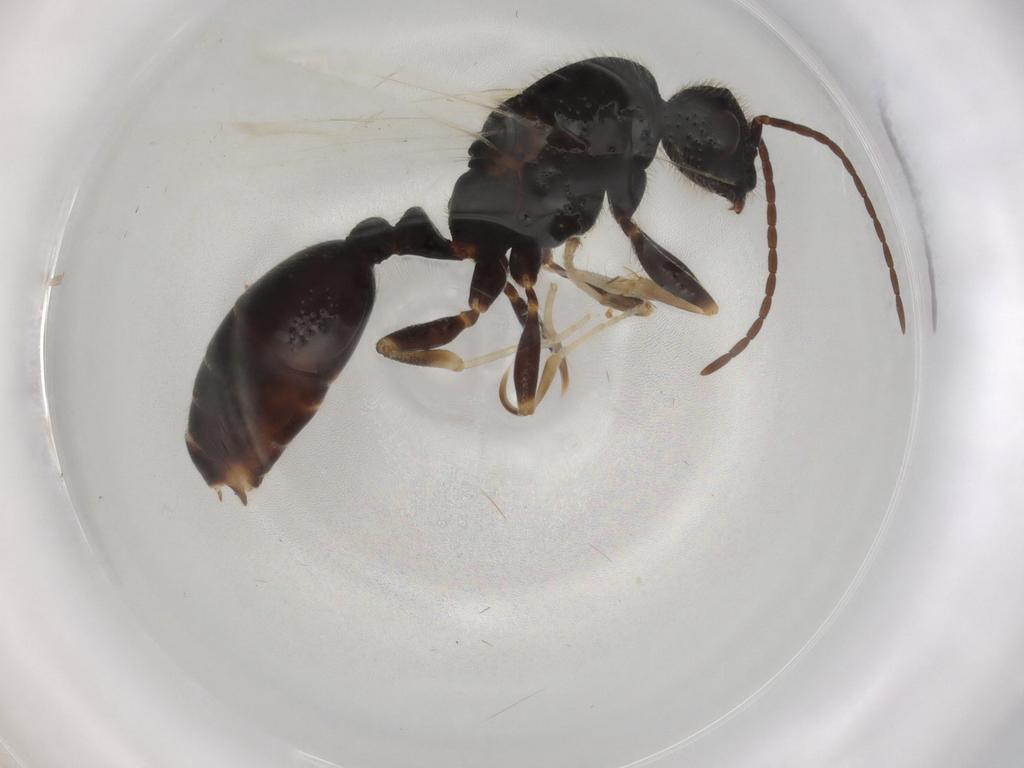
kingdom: Animalia
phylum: Arthropoda
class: Insecta
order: Hymenoptera
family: Formicidae
